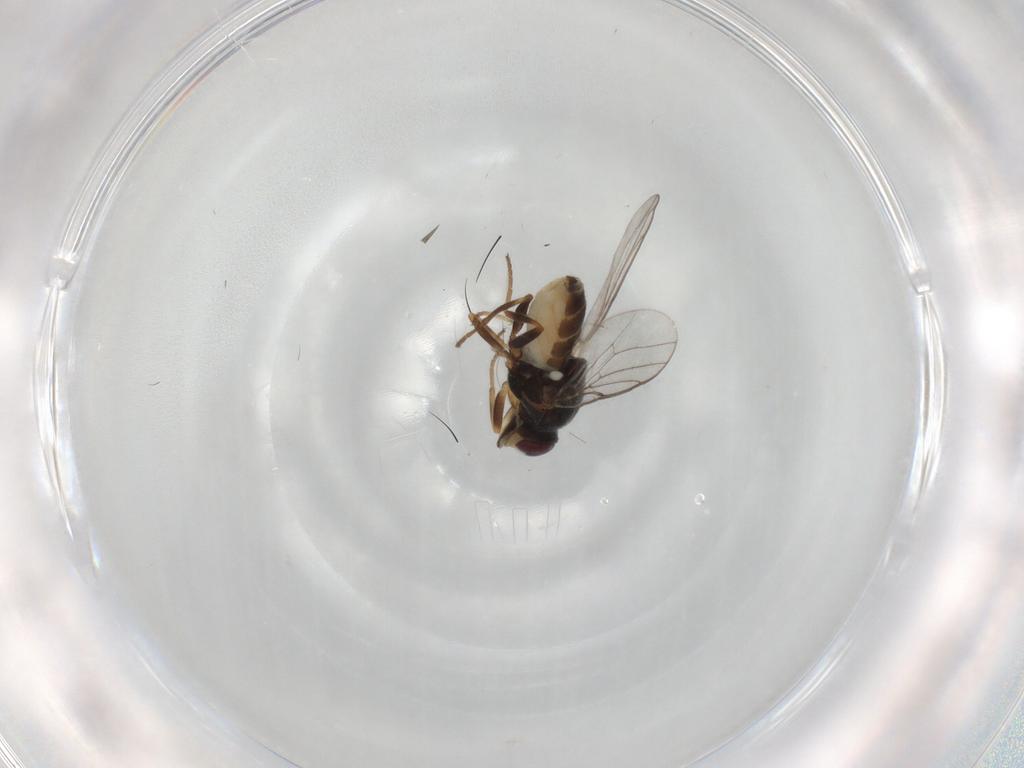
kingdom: Animalia
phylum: Arthropoda
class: Insecta
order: Diptera
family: Chloropidae
